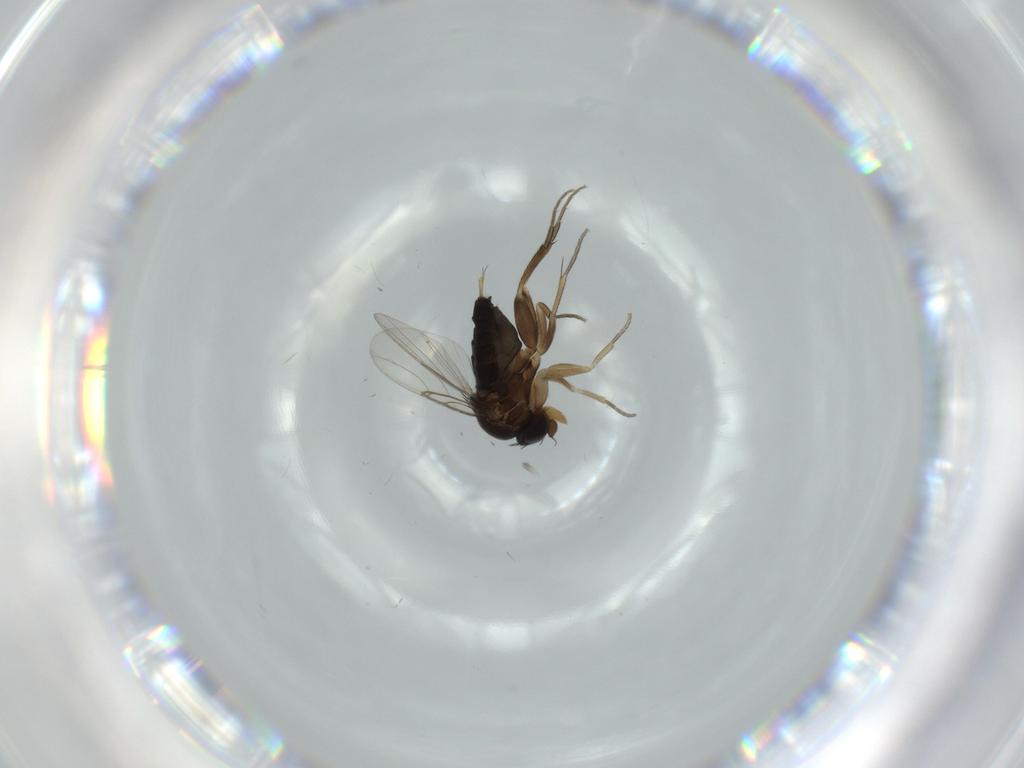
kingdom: Animalia
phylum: Arthropoda
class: Insecta
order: Diptera
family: Phoridae
